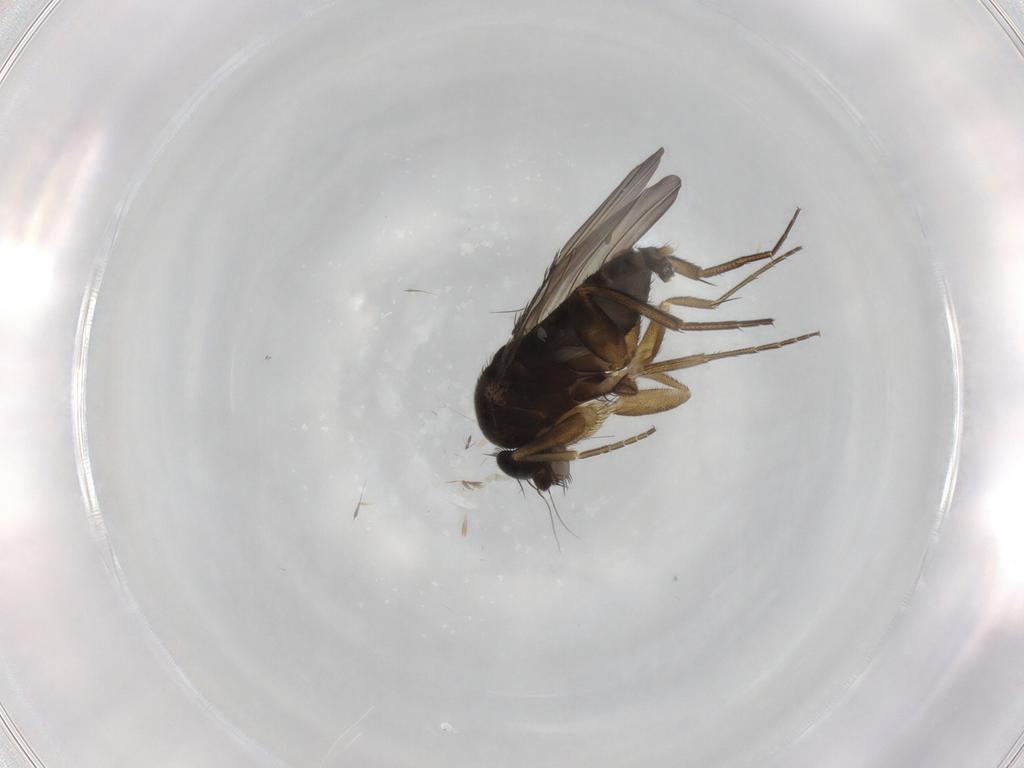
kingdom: Animalia
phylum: Arthropoda
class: Insecta
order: Diptera
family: Phoridae
